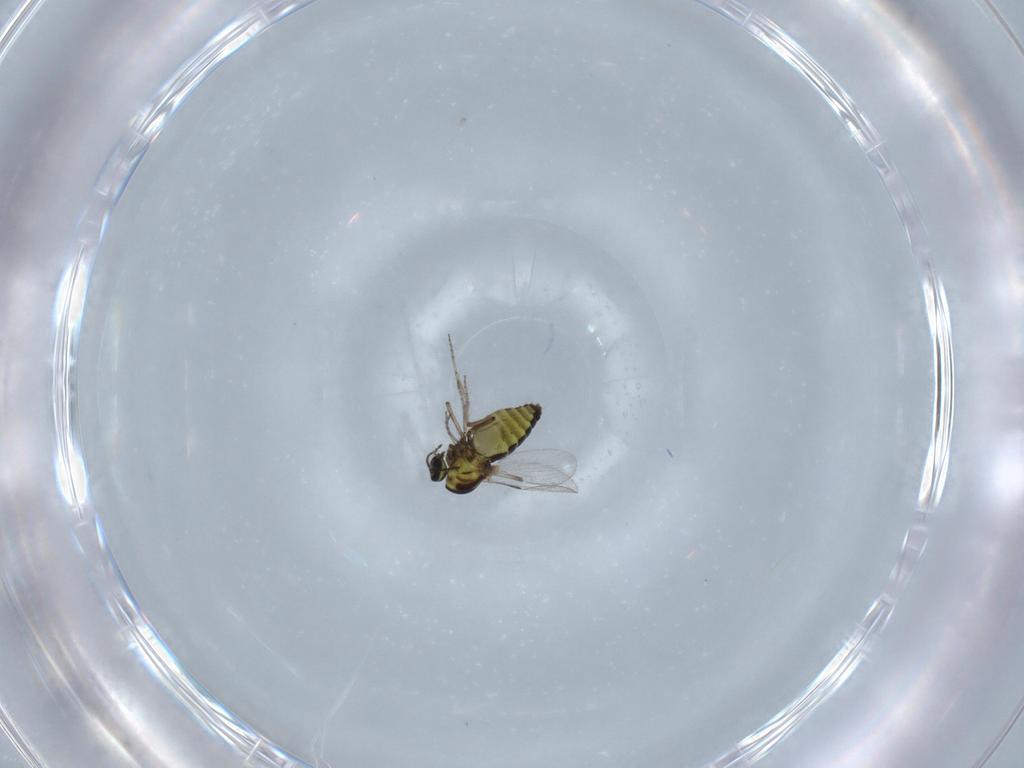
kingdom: Animalia
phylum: Arthropoda
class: Insecta
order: Diptera
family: Ceratopogonidae
